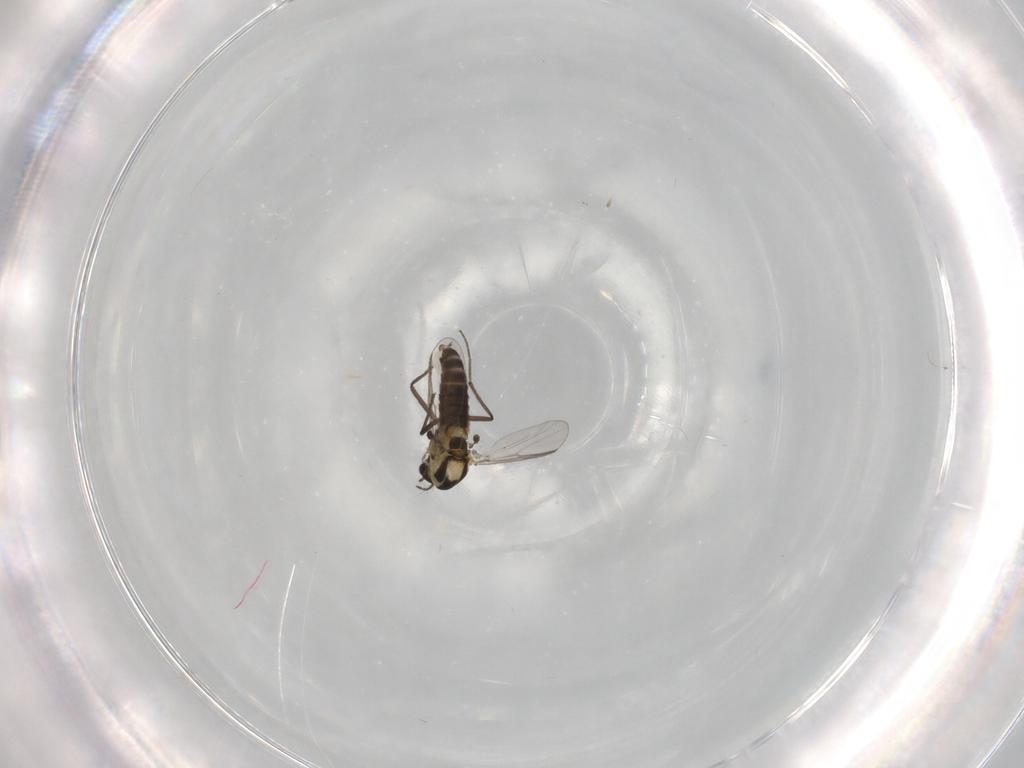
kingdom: Animalia
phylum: Arthropoda
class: Insecta
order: Diptera
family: Chironomidae
